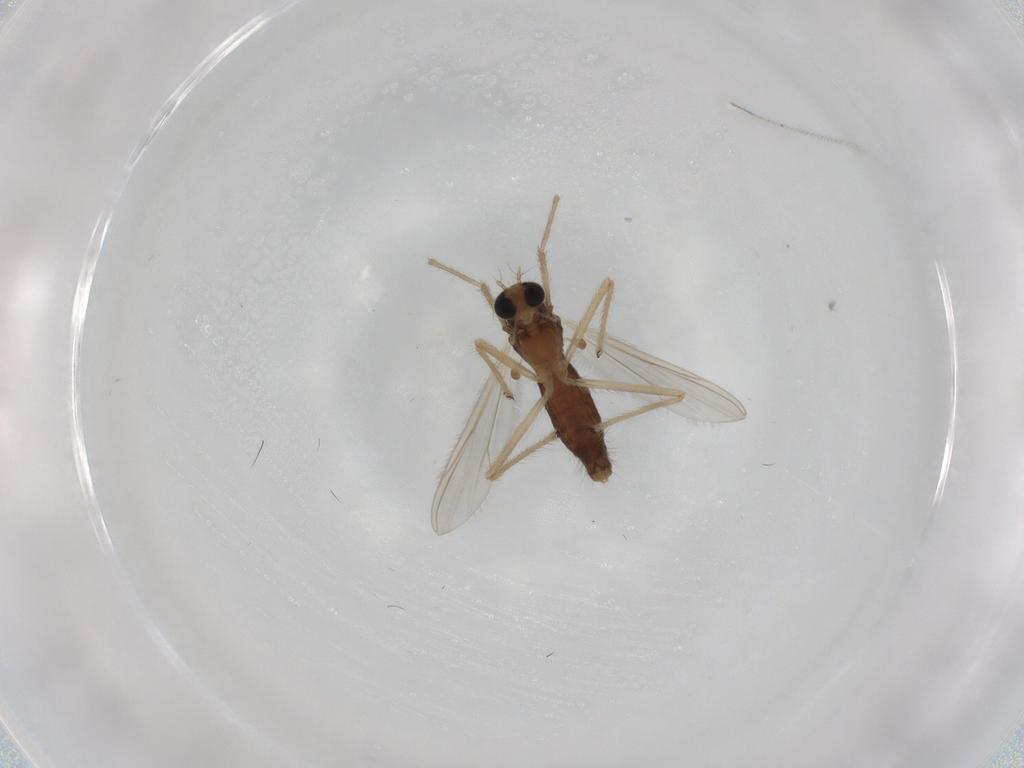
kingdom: Animalia
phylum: Arthropoda
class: Insecta
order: Diptera
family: Chironomidae
